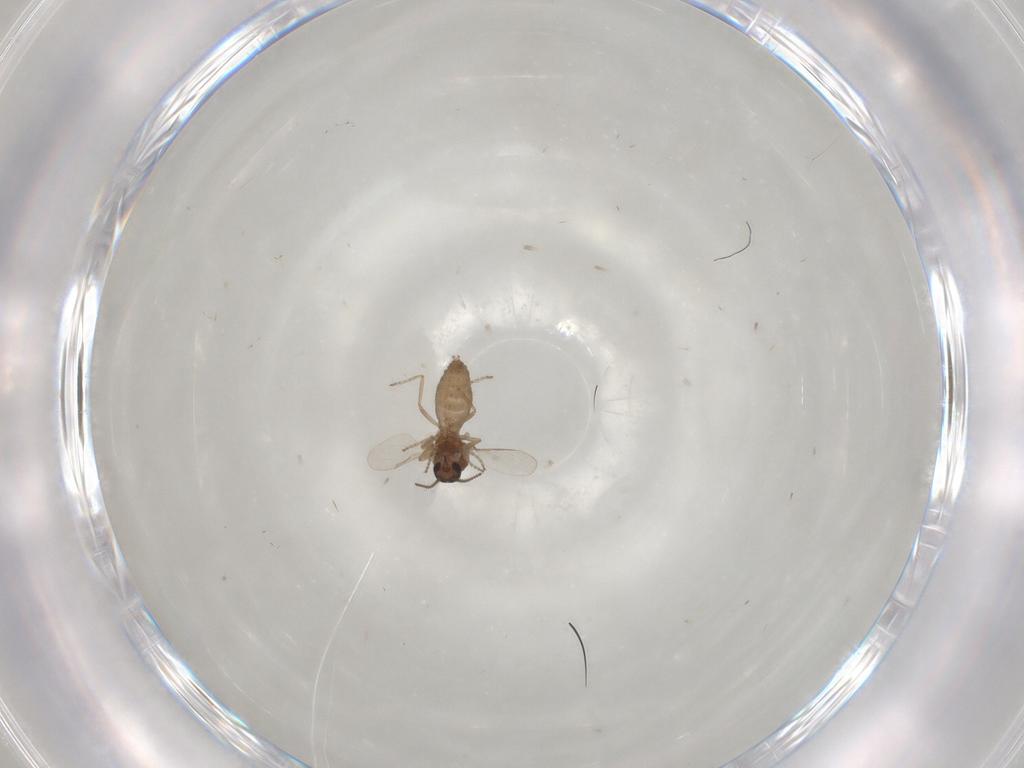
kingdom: Animalia
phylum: Arthropoda
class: Insecta
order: Diptera
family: Ceratopogonidae
